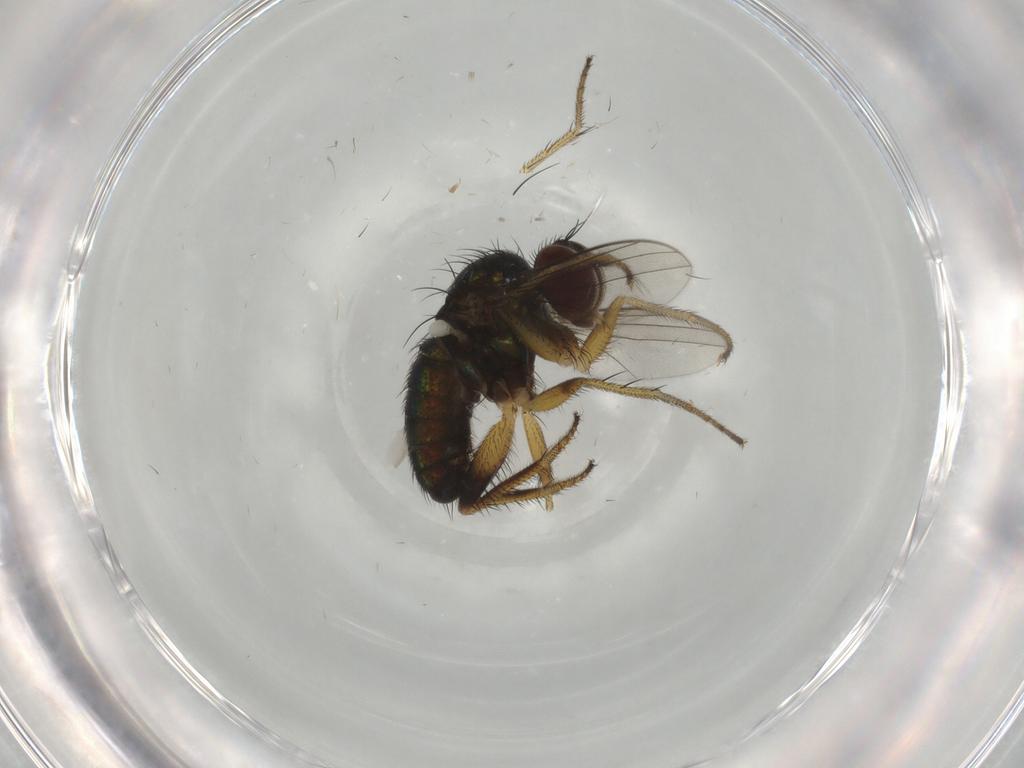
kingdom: Animalia
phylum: Arthropoda
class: Insecta
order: Diptera
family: Dolichopodidae
